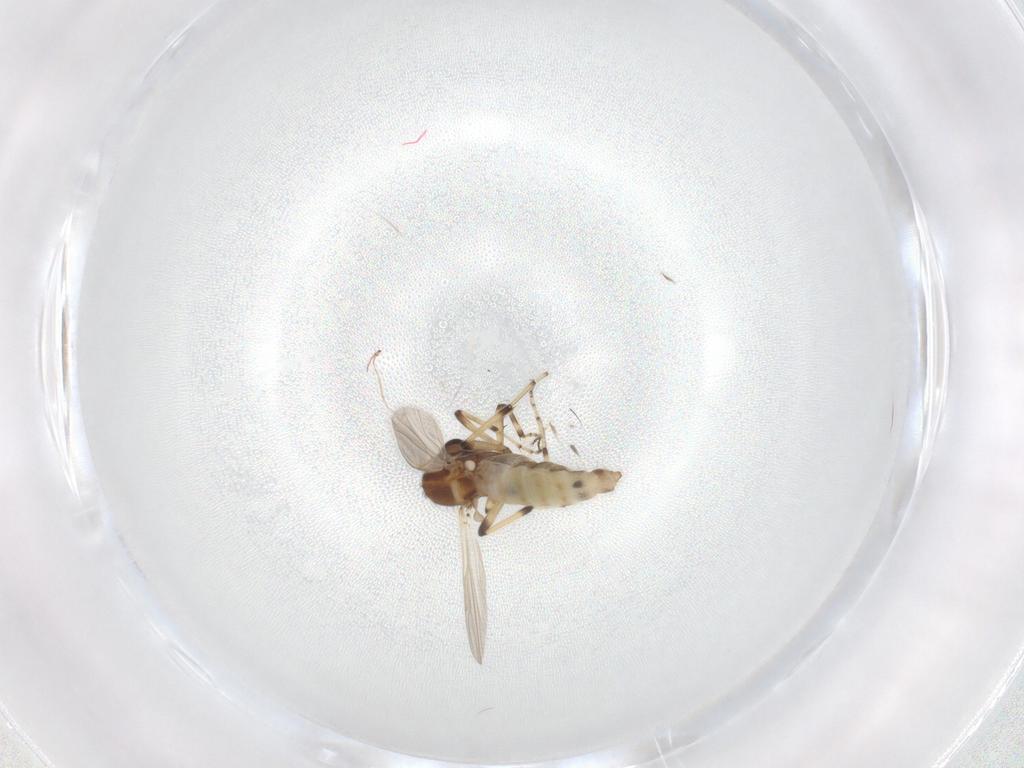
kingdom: Animalia
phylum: Arthropoda
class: Insecta
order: Diptera
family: Ceratopogonidae
